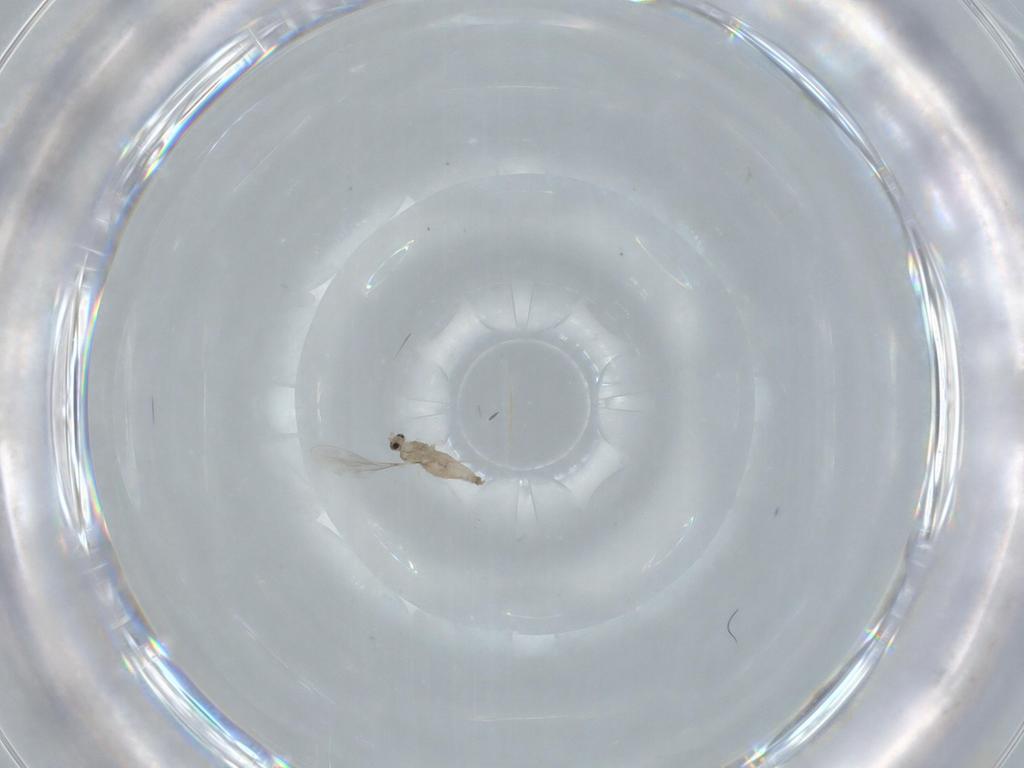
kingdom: Animalia
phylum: Arthropoda
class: Insecta
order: Diptera
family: Cecidomyiidae
